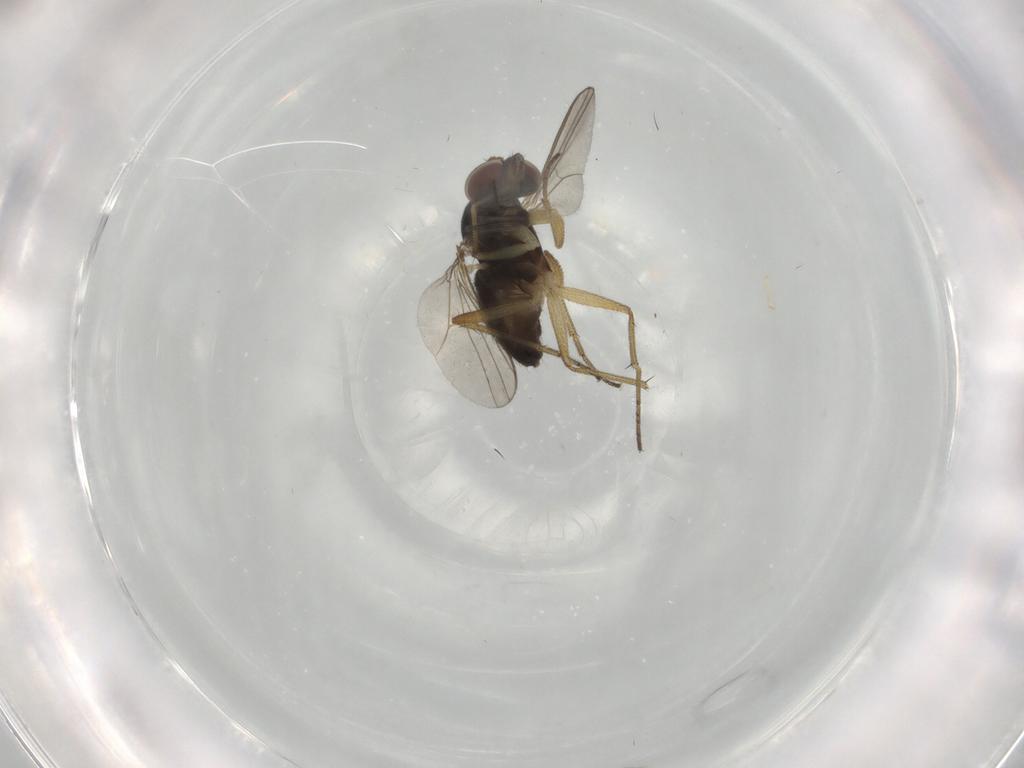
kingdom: Animalia
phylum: Arthropoda
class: Insecta
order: Diptera
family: Dolichopodidae
